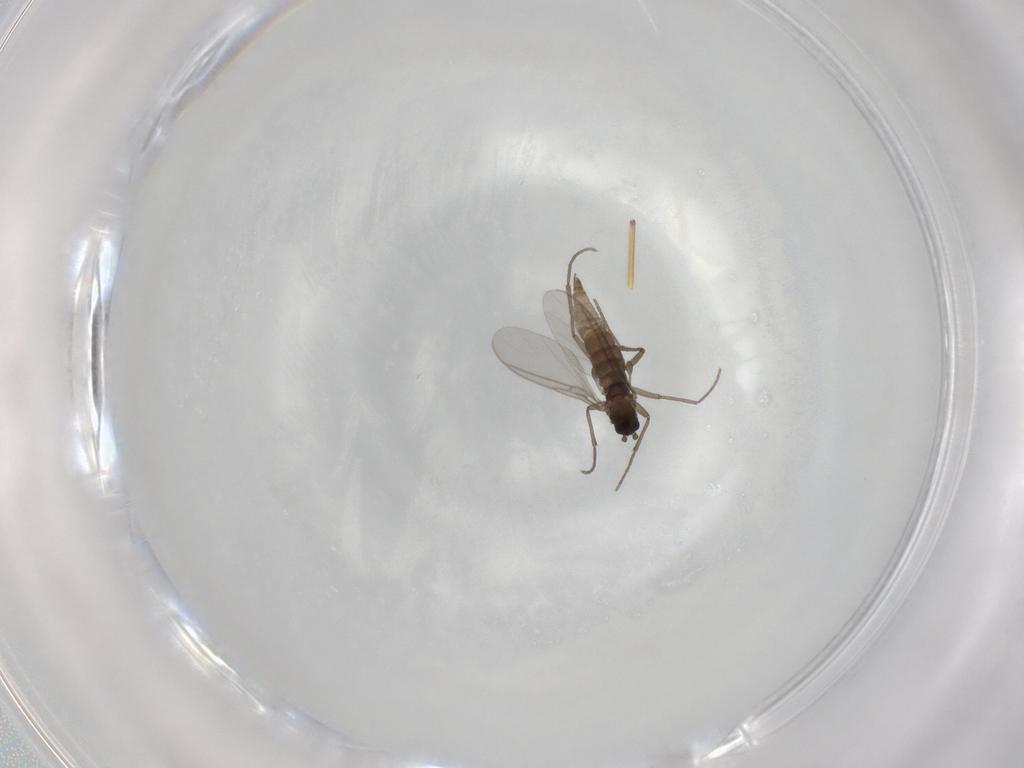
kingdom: Animalia
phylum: Arthropoda
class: Insecta
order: Diptera
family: Sciaridae
